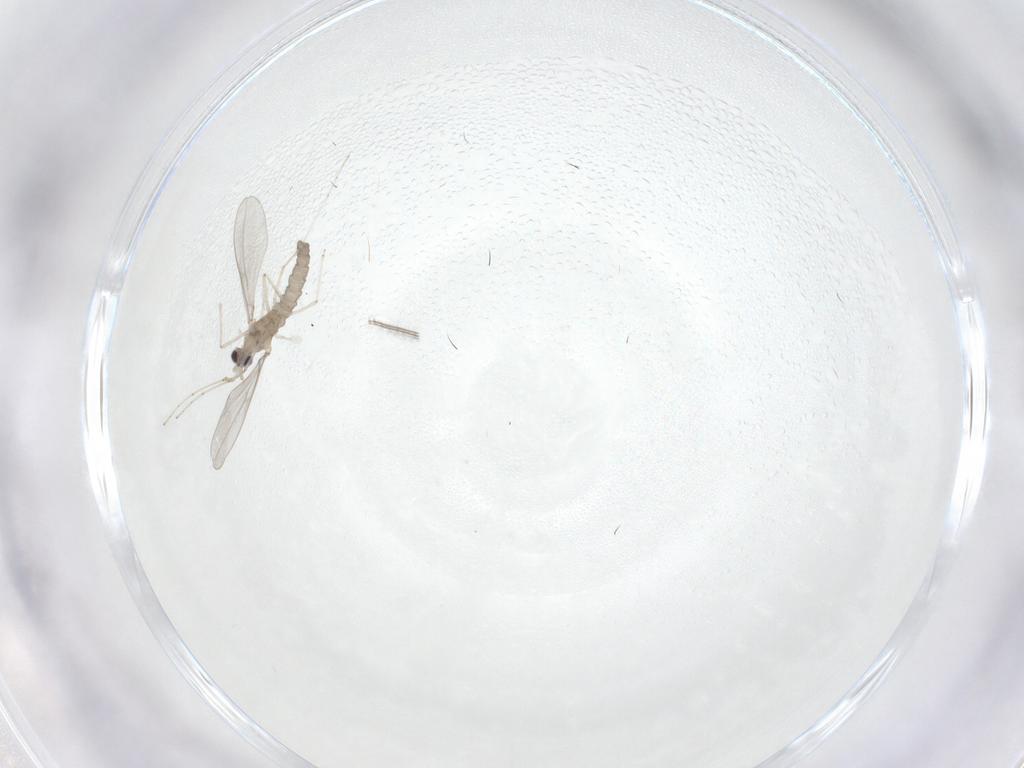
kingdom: Animalia
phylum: Arthropoda
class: Insecta
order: Diptera
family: Cecidomyiidae
